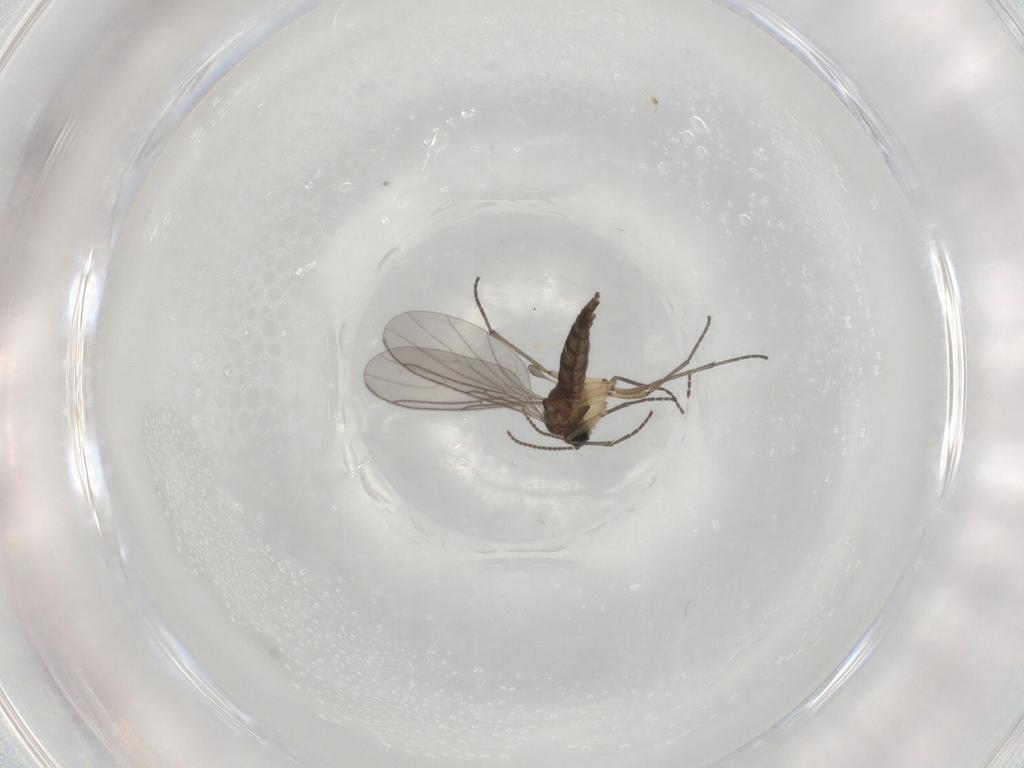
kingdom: Animalia
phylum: Arthropoda
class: Insecta
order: Diptera
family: Sciaridae
